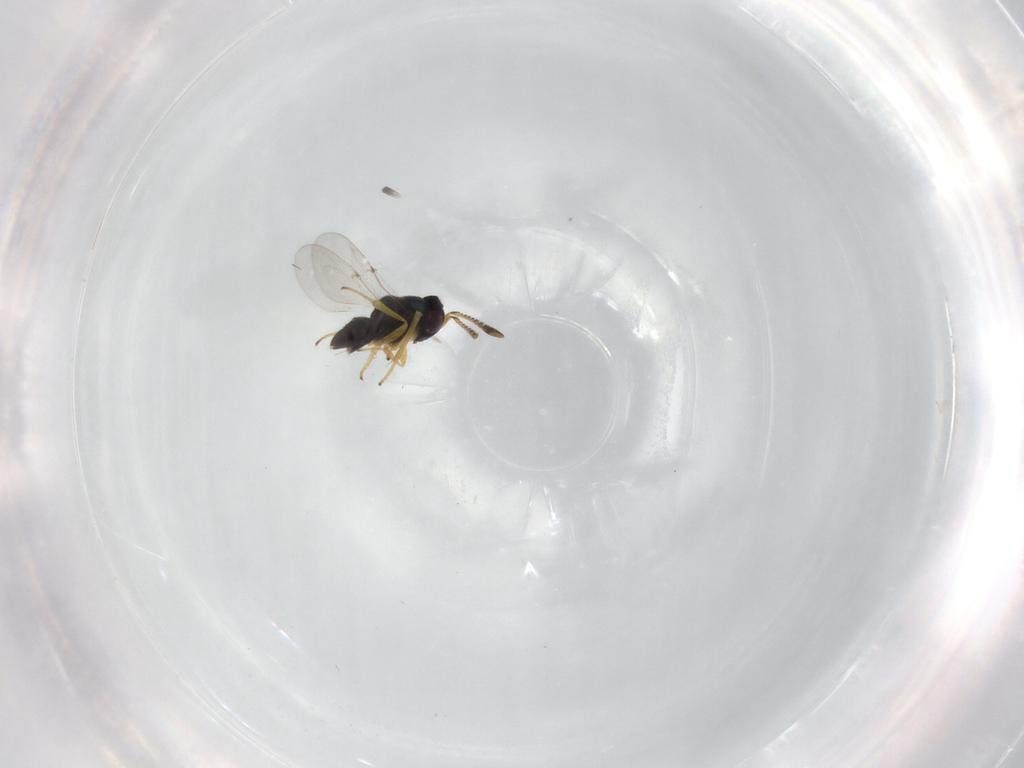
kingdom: Animalia
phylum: Arthropoda
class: Insecta
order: Hymenoptera
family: Encyrtidae
